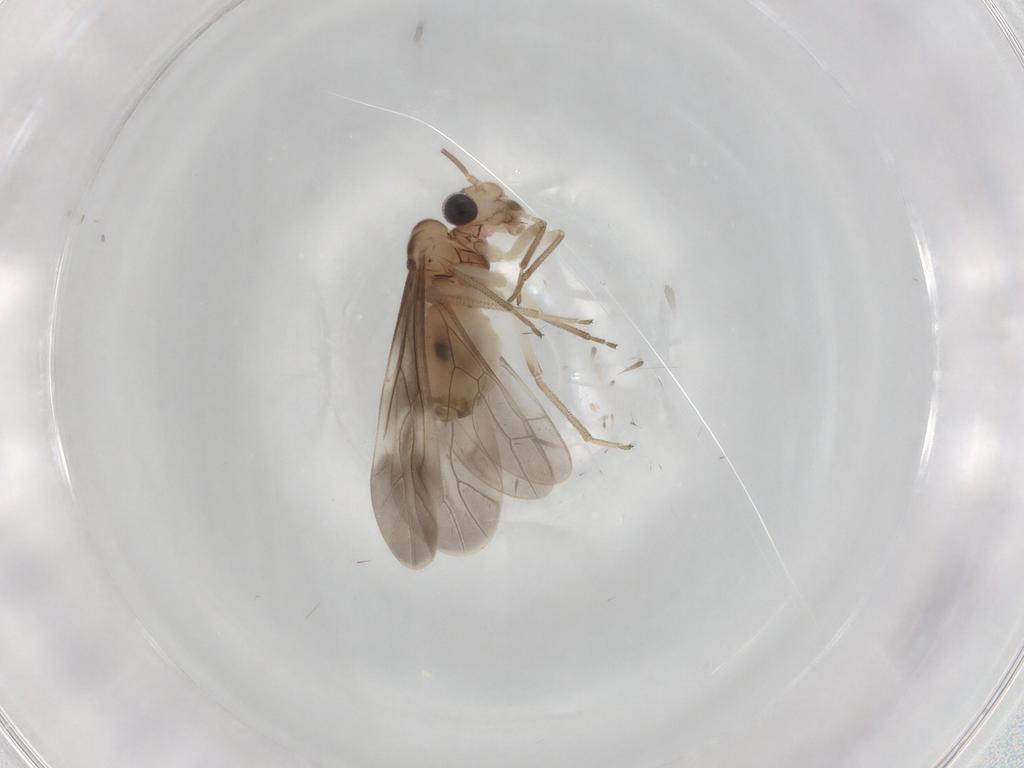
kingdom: Animalia
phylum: Arthropoda
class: Insecta
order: Psocodea
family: Caeciliusidae
